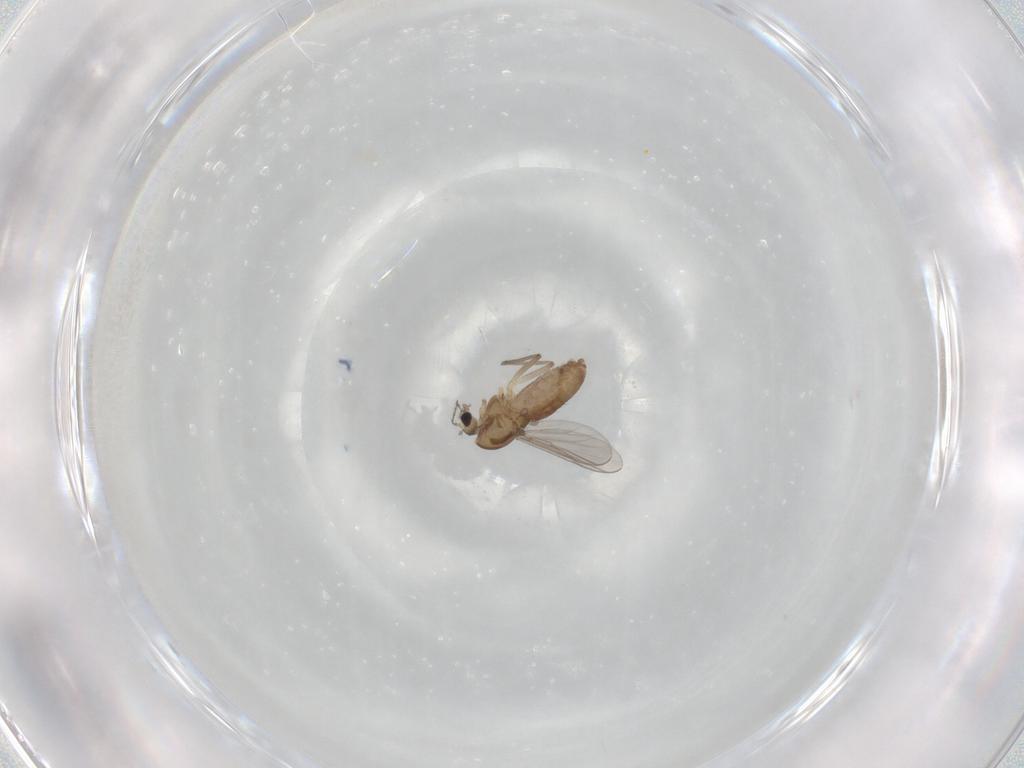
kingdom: Animalia
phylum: Arthropoda
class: Insecta
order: Diptera
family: Chironomidae
